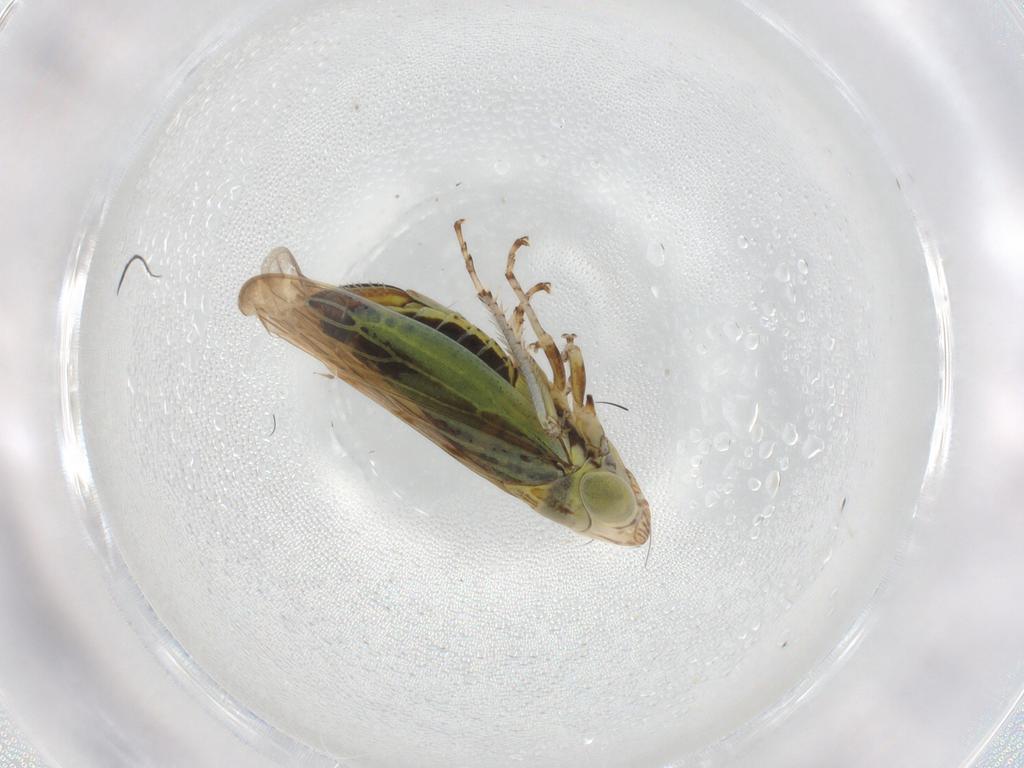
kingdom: Animalia
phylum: Arthropoda
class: Insecta
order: Hemiptera
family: Cicadellidae
